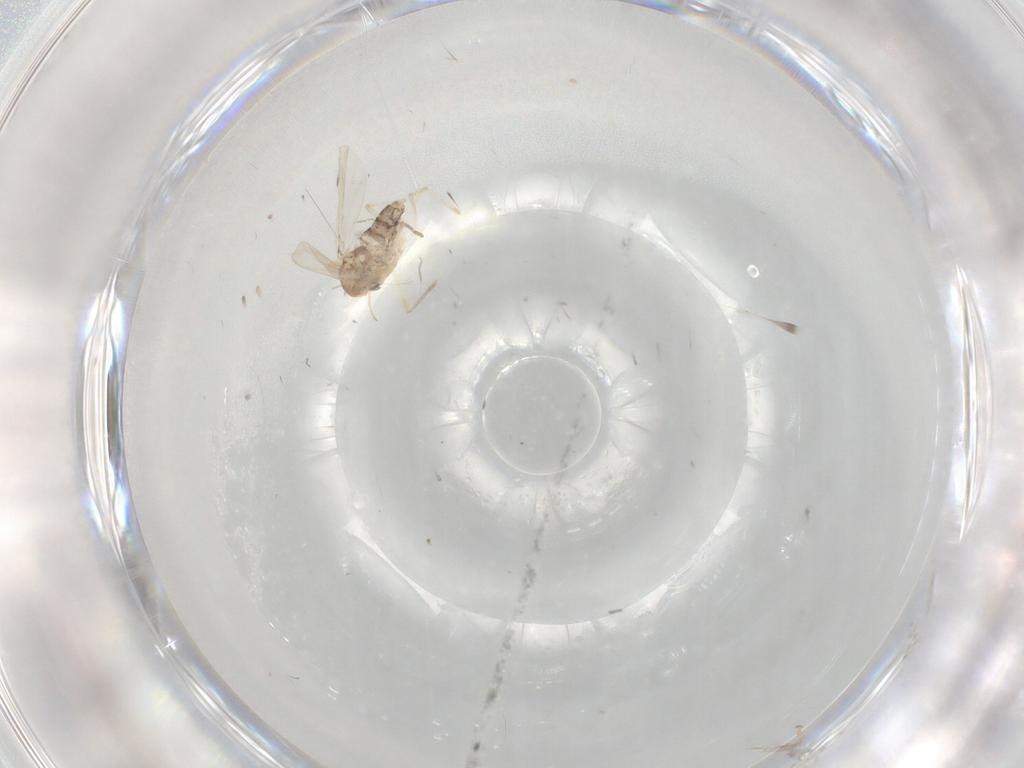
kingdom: Animalia
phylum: Arthropoda
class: Insecta
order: Diptera
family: Chironomidae
